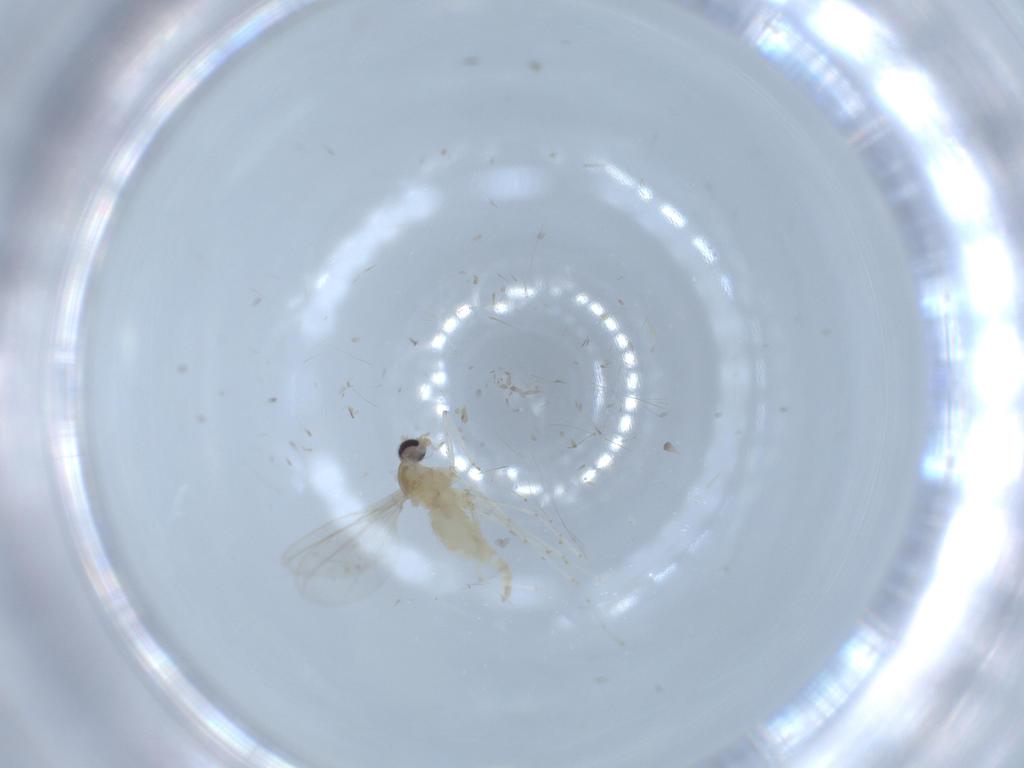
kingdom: Animalia
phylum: Arthropoda
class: Insecta
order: Diptera
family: Cecidomyiidae
